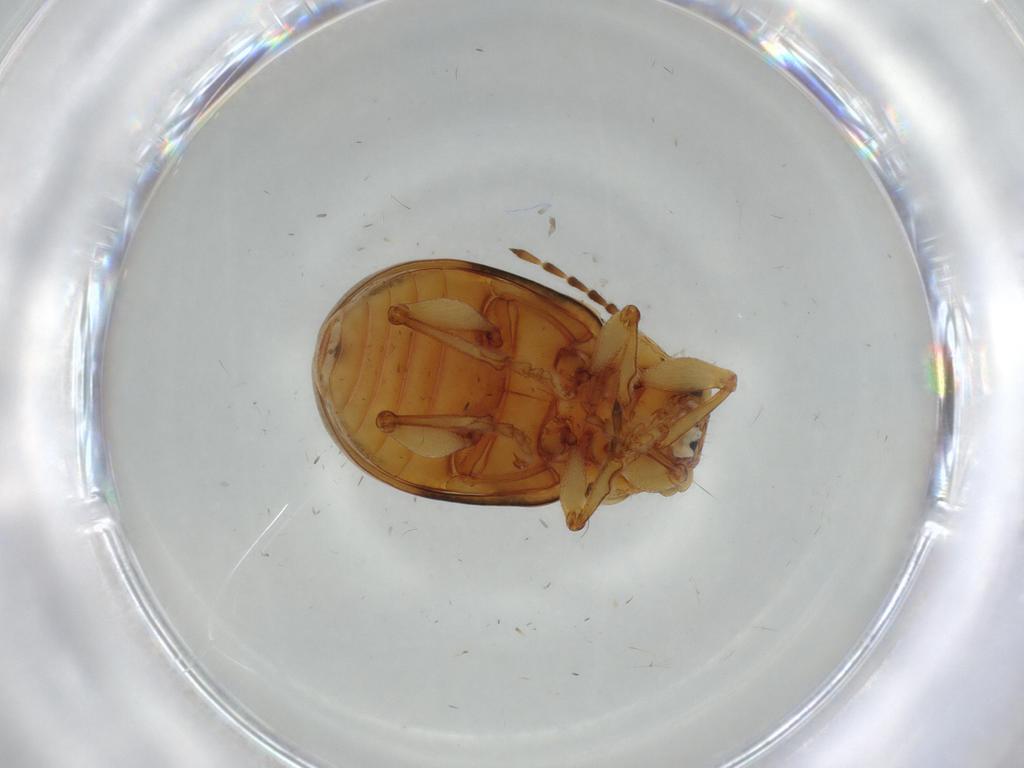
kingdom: Animalia
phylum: Arthropoda
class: Insecta
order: Coleoptera
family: Chrysomelidae
